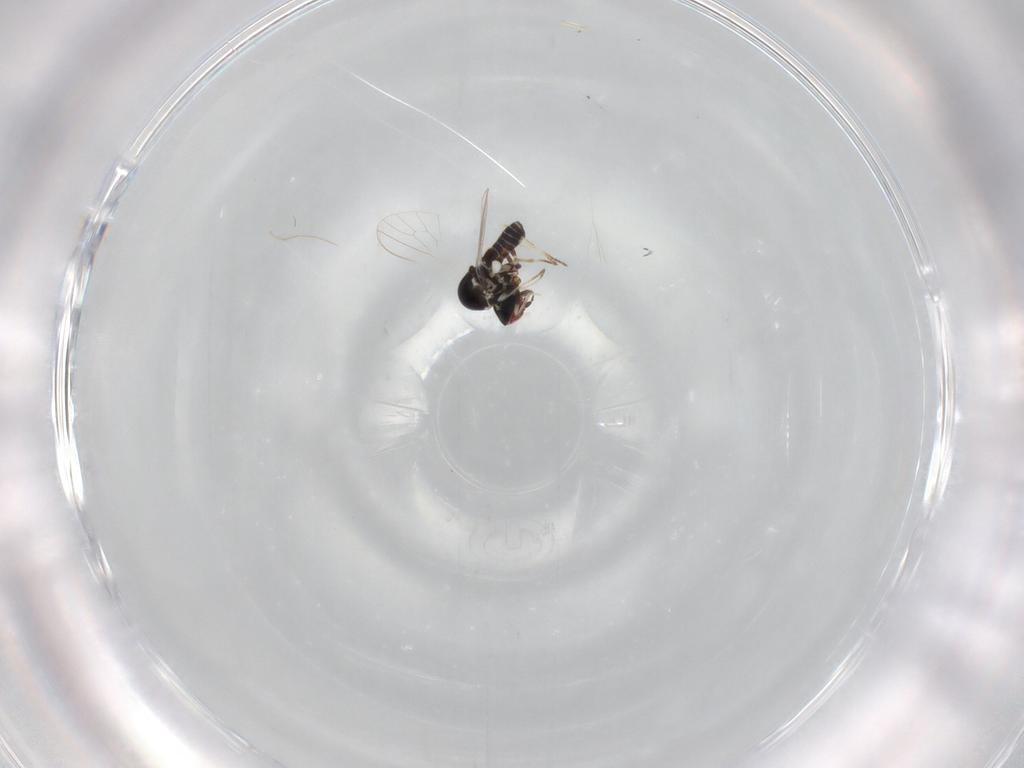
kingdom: Animalia
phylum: Arthropoda
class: Insecta
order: Diptera
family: Bombyliidae
